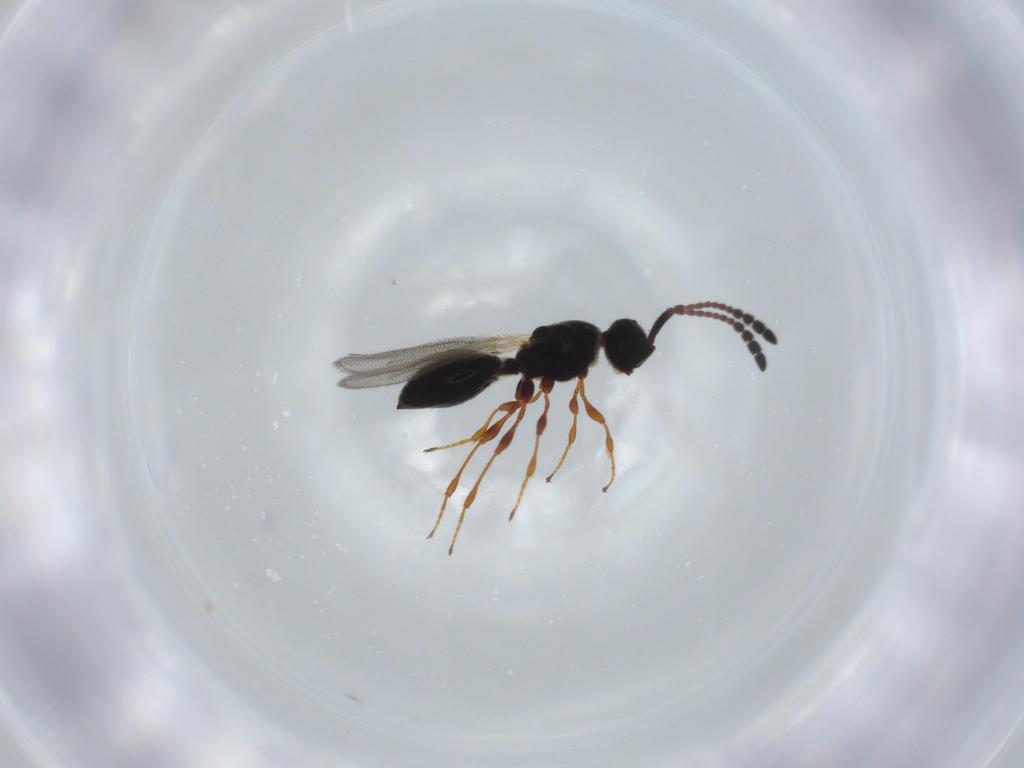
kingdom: Animalia
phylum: Arthropoda
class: Insecta
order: Hymenoptera
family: Diapriidae
